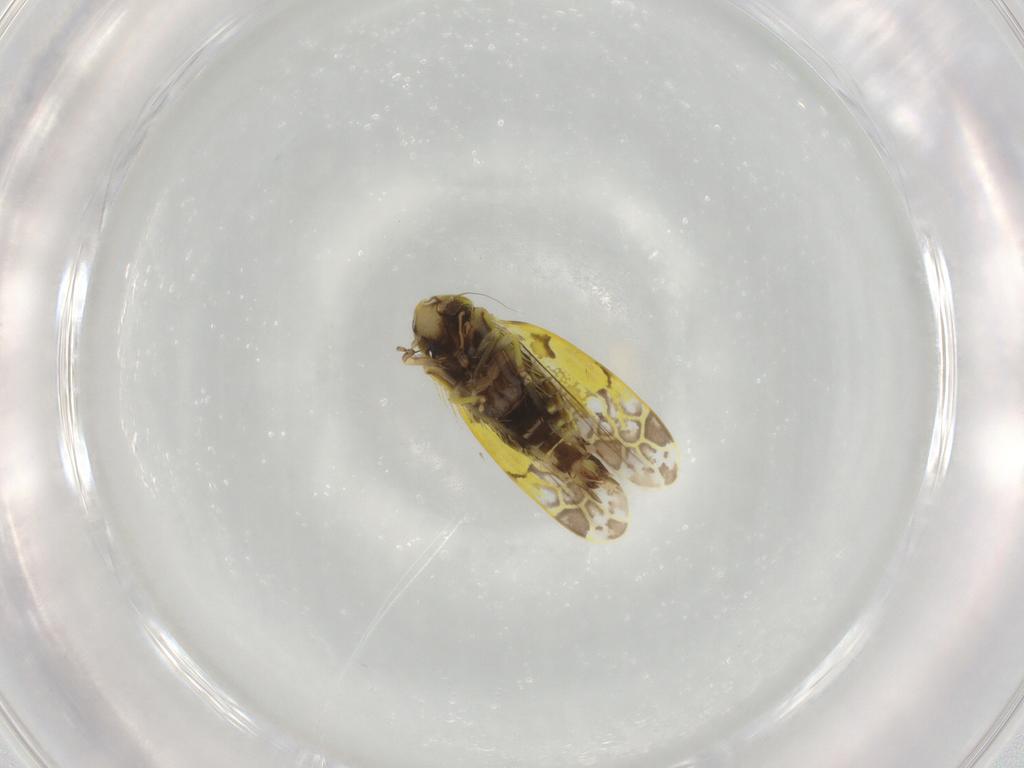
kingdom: Animalia
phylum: Arthropoda
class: Insecta
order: Hemiptera
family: Cicadellidae
